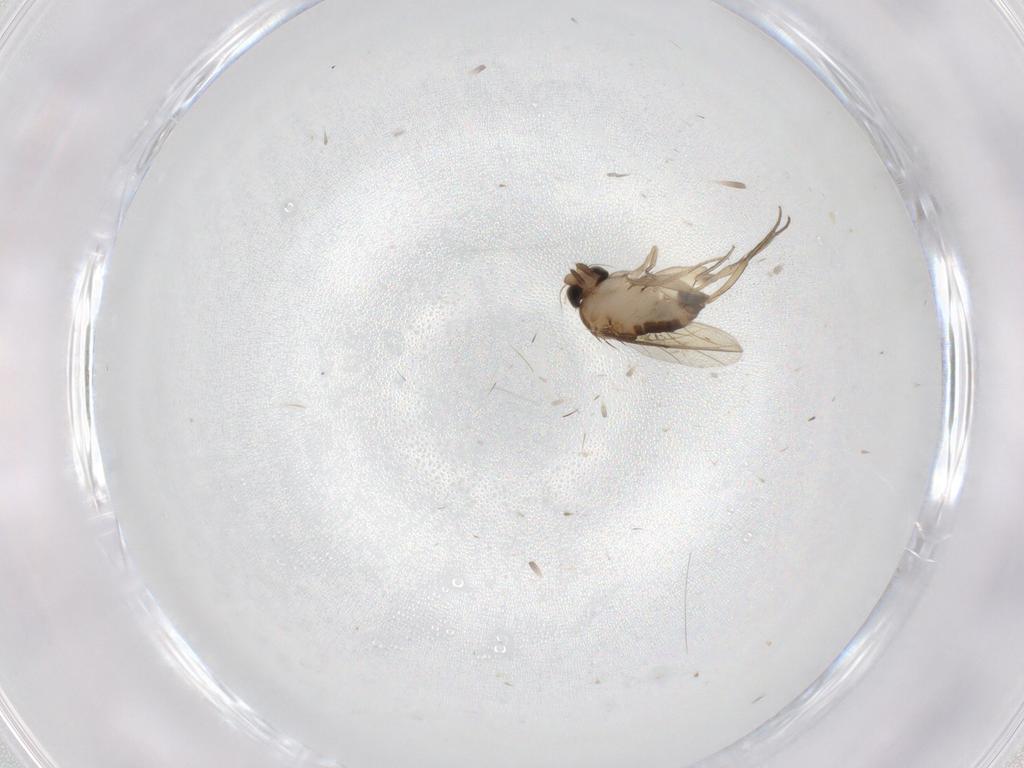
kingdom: Animalia
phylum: Arthropoda
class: Insecta
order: Diptera
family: Phoridae
